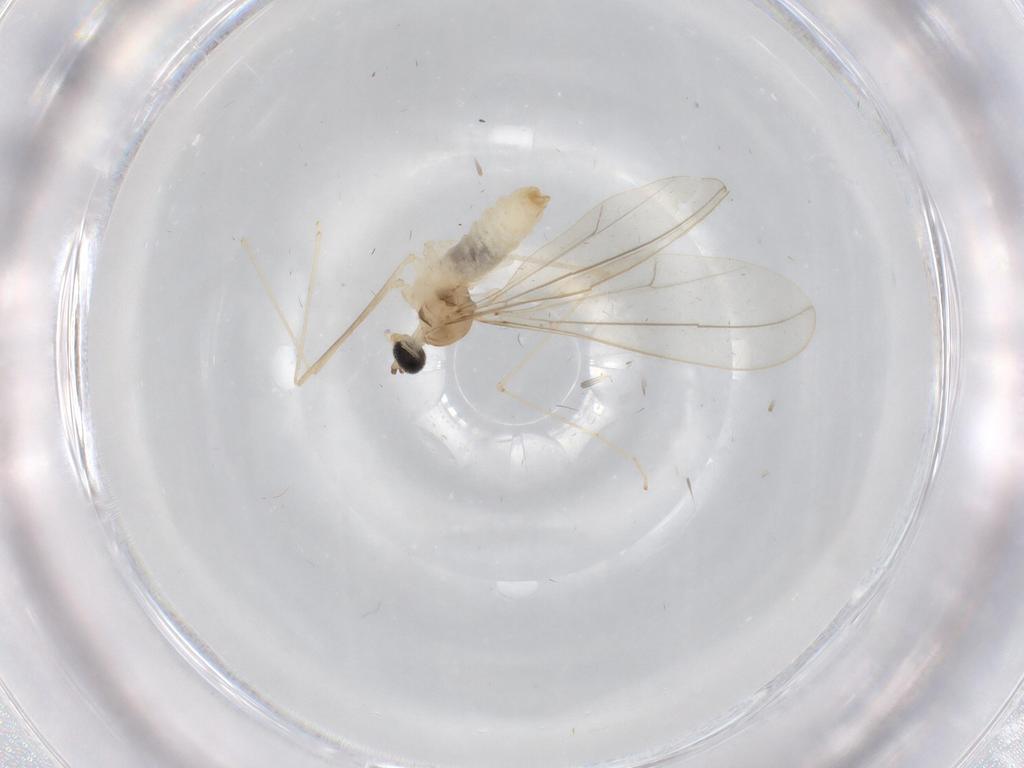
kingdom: Animalia
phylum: Arthropoda
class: Insecta
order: Diptera
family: Cecidomyiidae
